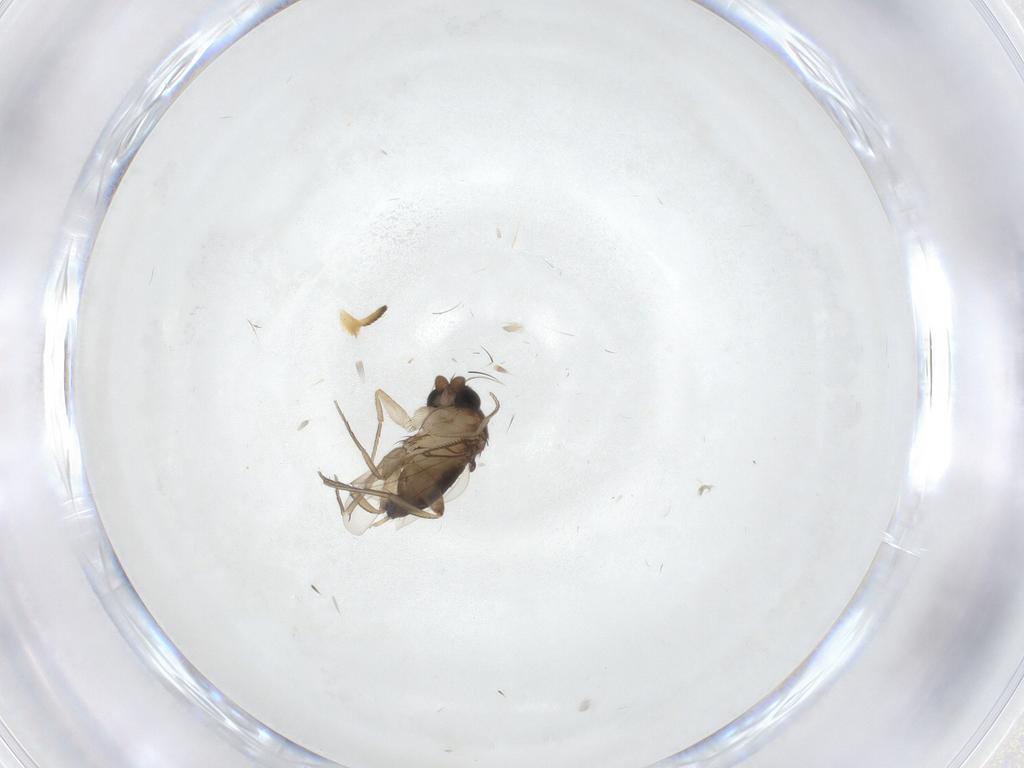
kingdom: Animalia
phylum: Arthropoda
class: Insecta
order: Diptera
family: Phoridae
